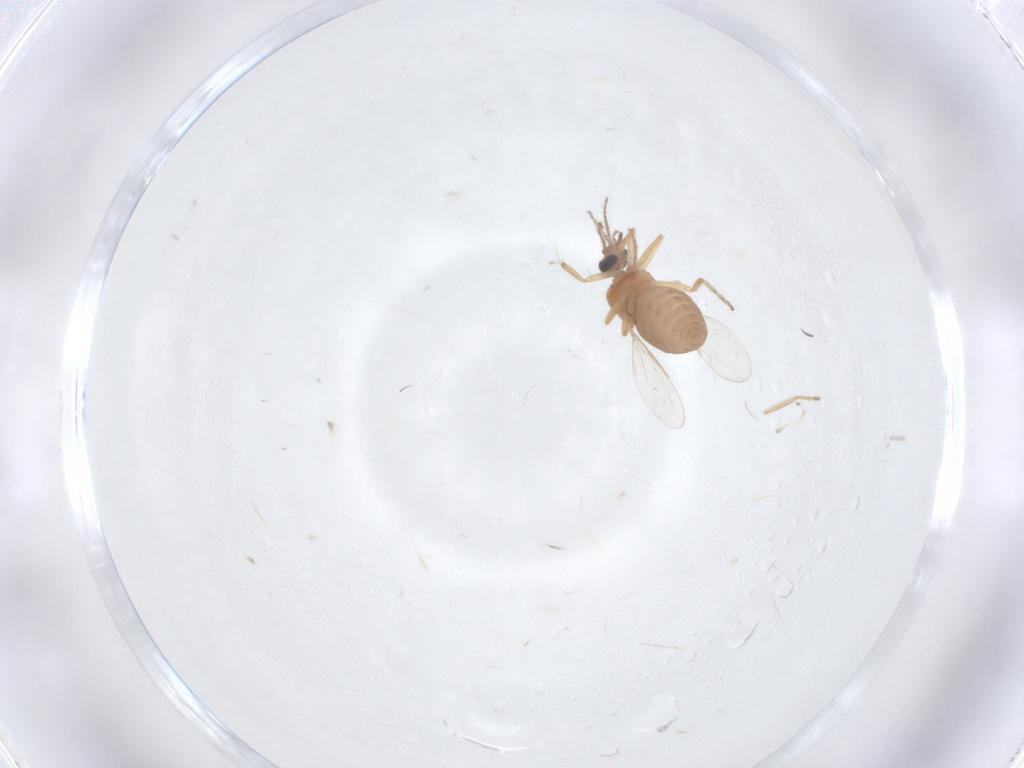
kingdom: Animalia
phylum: Arthropoda
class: Insecta
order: Diptera
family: Ceratopogonidae
